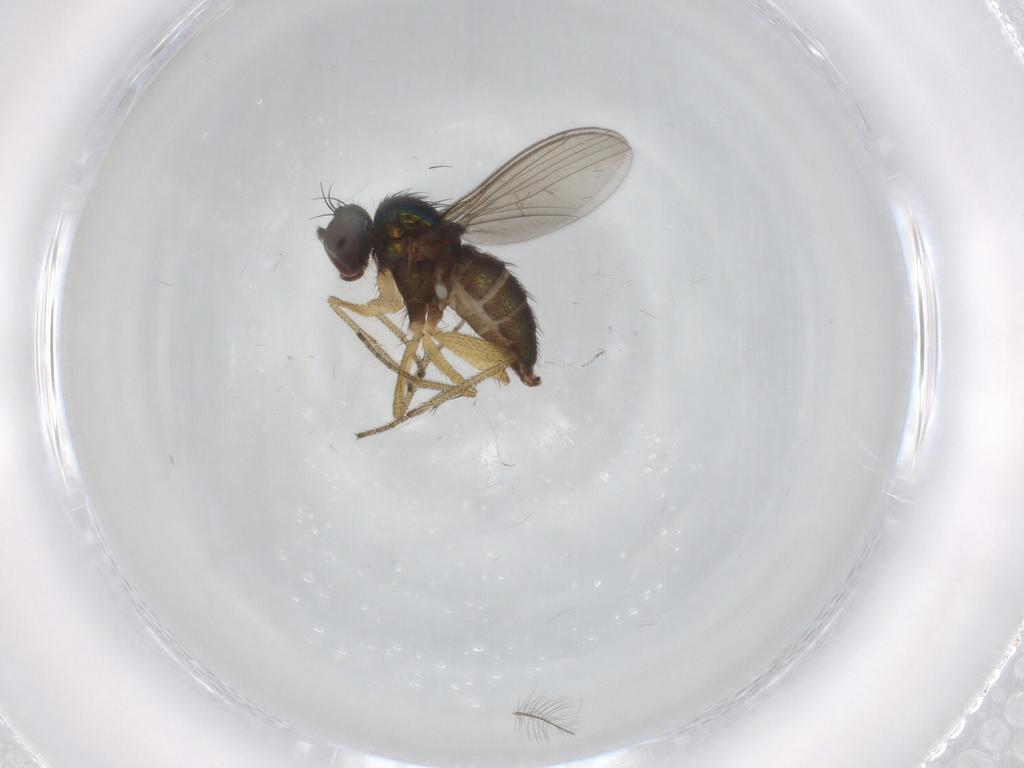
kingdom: Animalia
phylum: Arthropoda
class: Insecta
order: Diptera
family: Dolichopodidae
